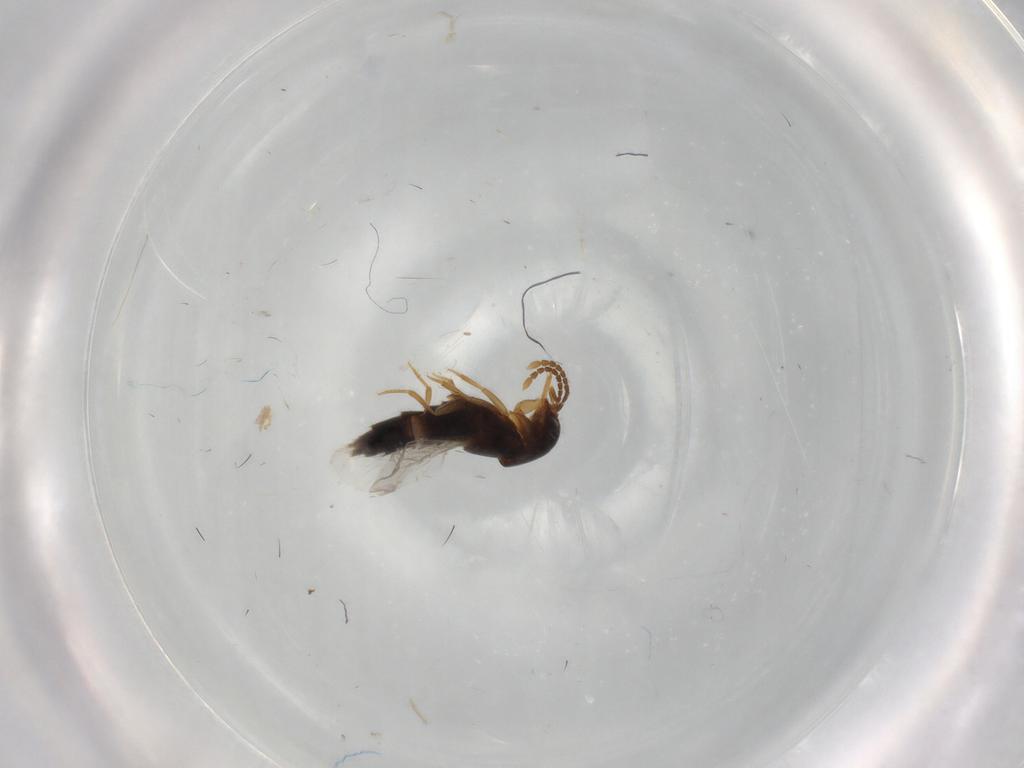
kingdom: Animalia
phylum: Arthropoda
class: Insecta
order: Coleoptera
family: Staphylinidae
